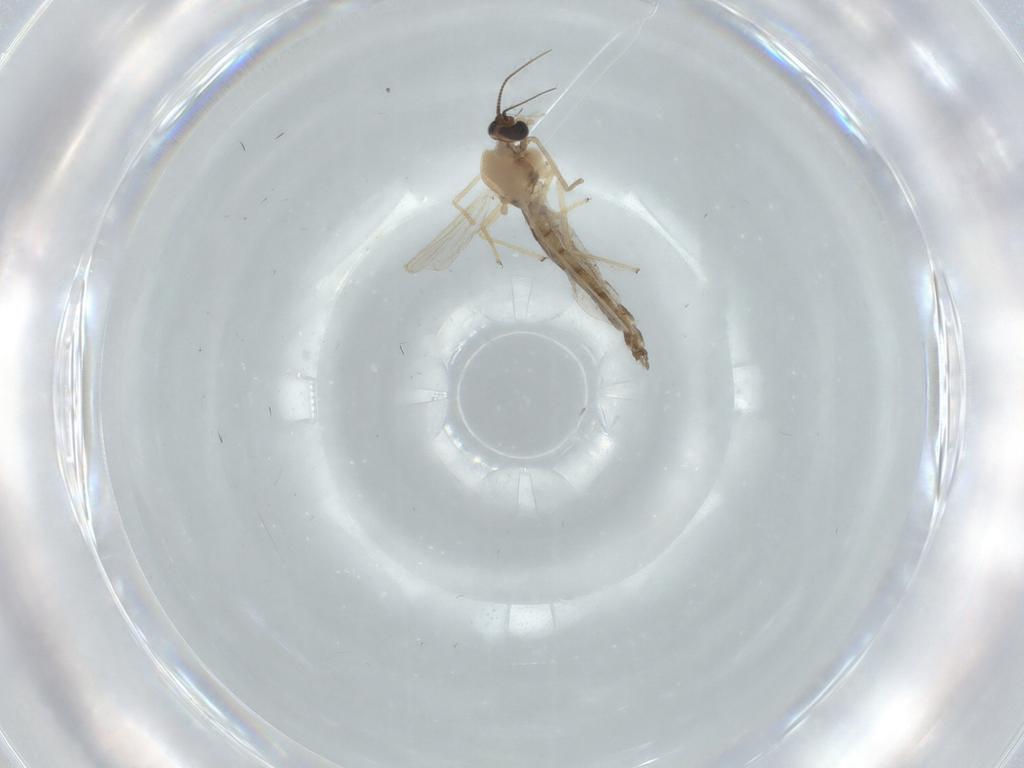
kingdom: Animalia
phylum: Arthropoda
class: Insecta
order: Diptera
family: Chironomidae
